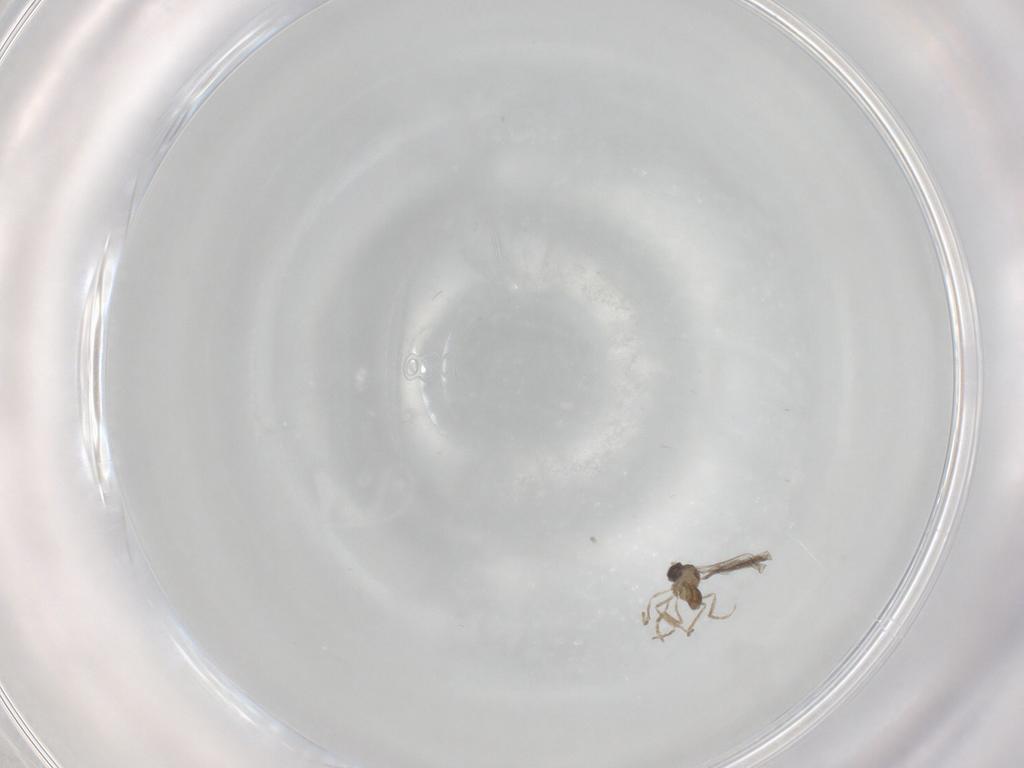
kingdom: Animalia
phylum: Arthropoda
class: Insecta
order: Diptera
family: Cecidomyiidae
